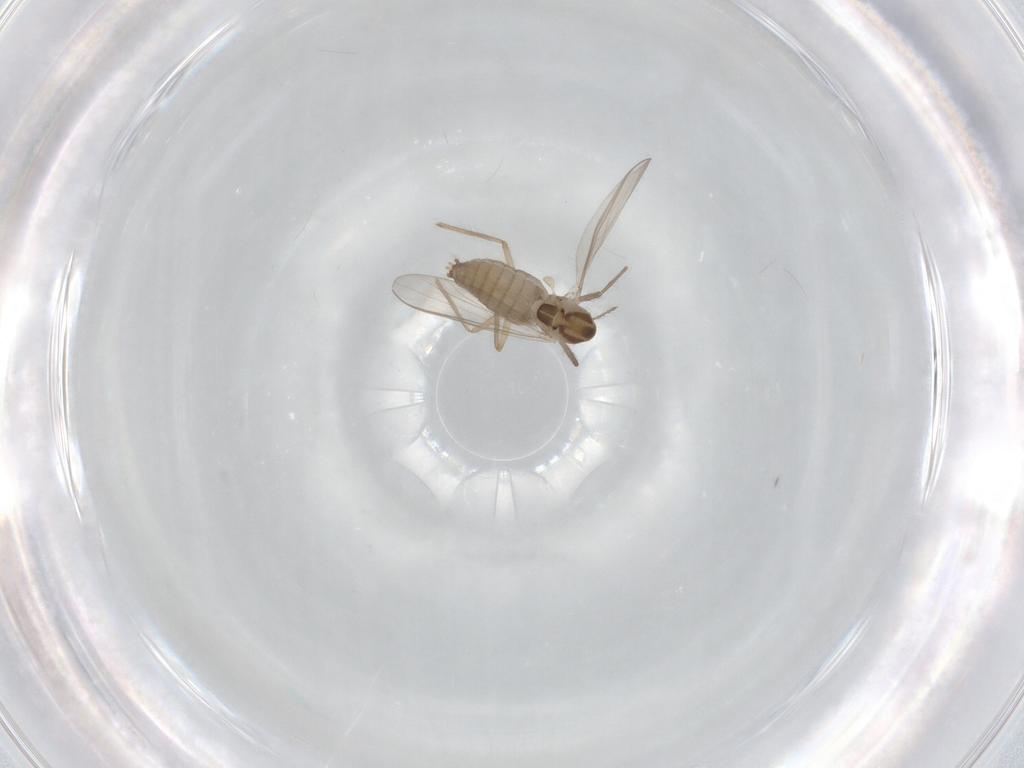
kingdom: Animalia
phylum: Arthropoda
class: Insecta
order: Diptera
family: Chironomidae
